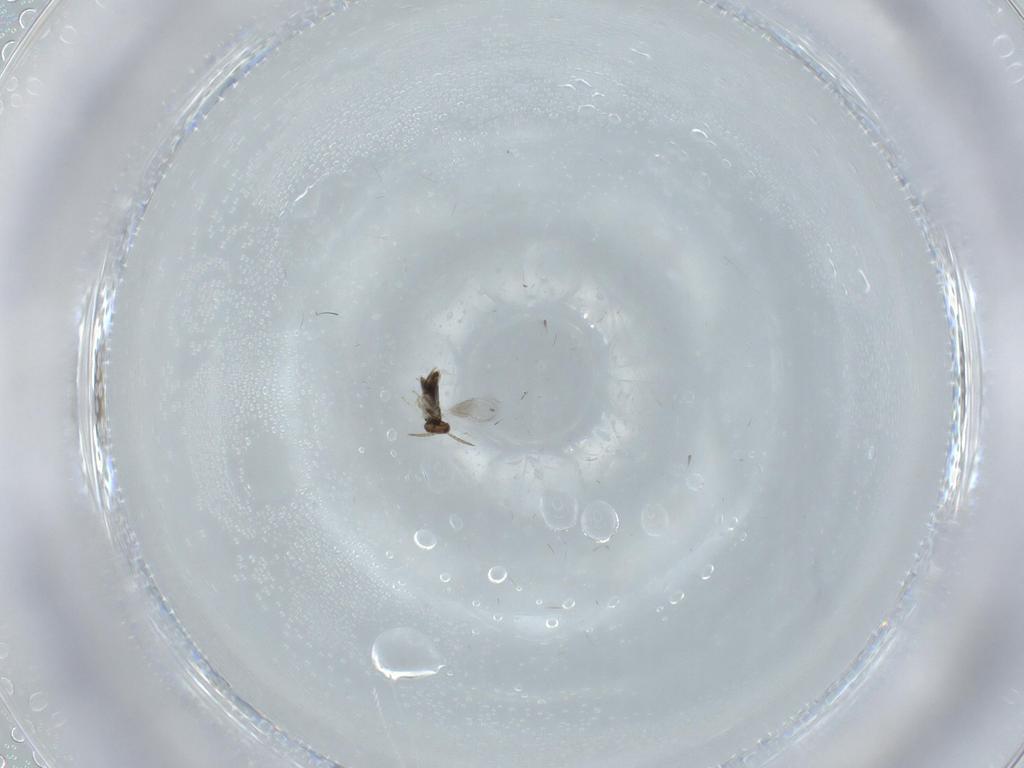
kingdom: Animalia
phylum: Arthropoda
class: Insecta
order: Hymenoptera
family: Aphelinidae
